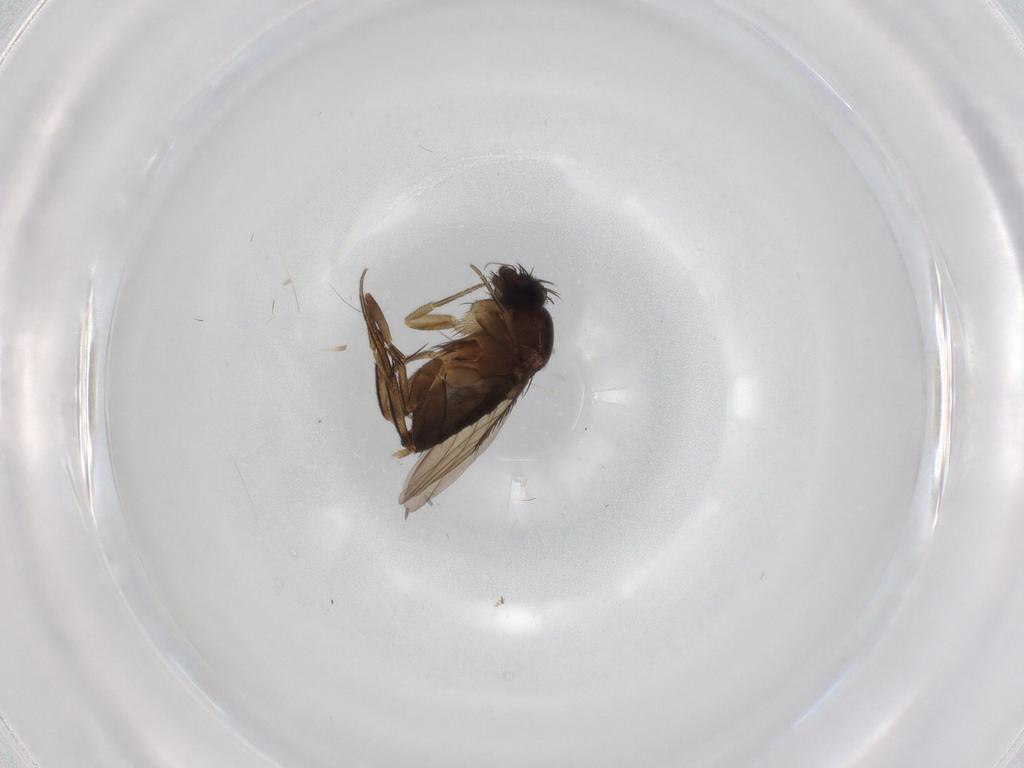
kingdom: Animalia
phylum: Arthropoda
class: Insecta
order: Diptera
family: Phoridae
